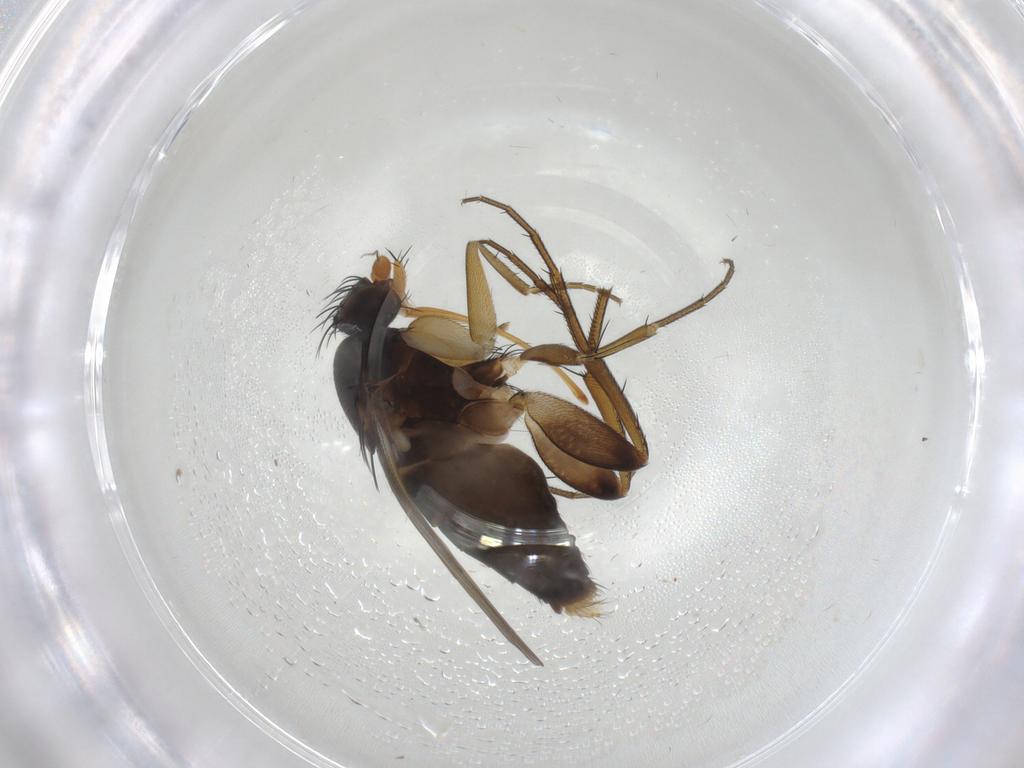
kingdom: Animalia
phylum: Arthropoda
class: Insecta
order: Diptera
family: Phoridae
